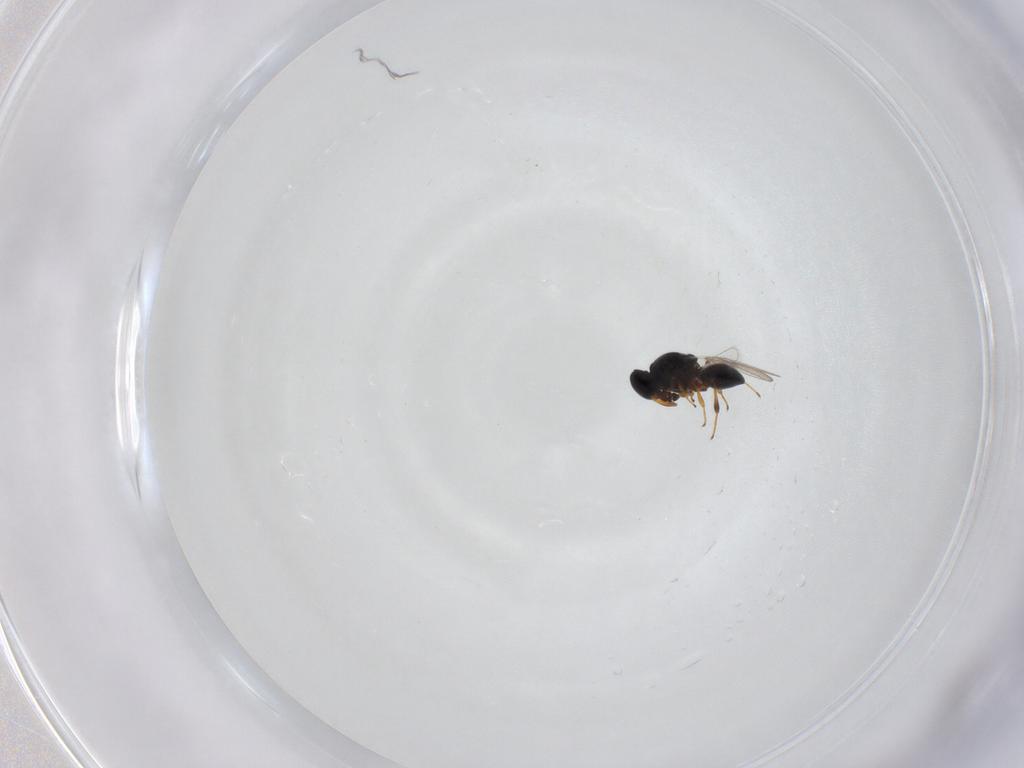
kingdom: Animalia
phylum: Arthropoda
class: Insecta
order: Hymenoptera
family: Platygastridae
